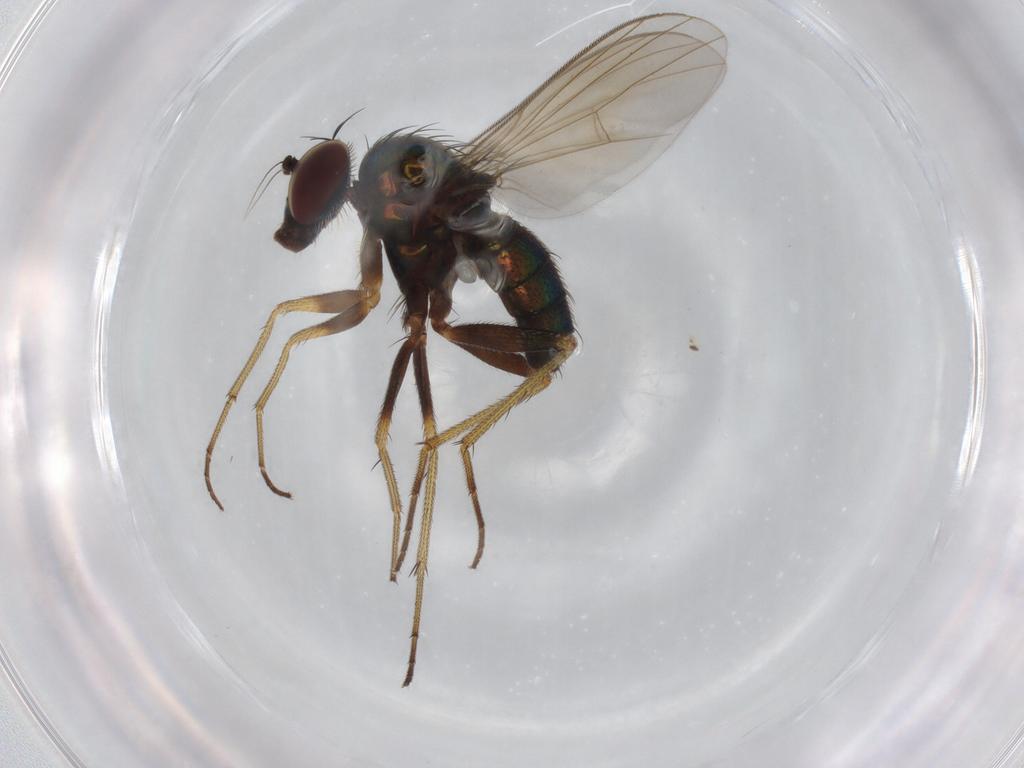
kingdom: Animalia
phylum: Arthropoda
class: Insecta
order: Diptera
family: Dolichopodidae
